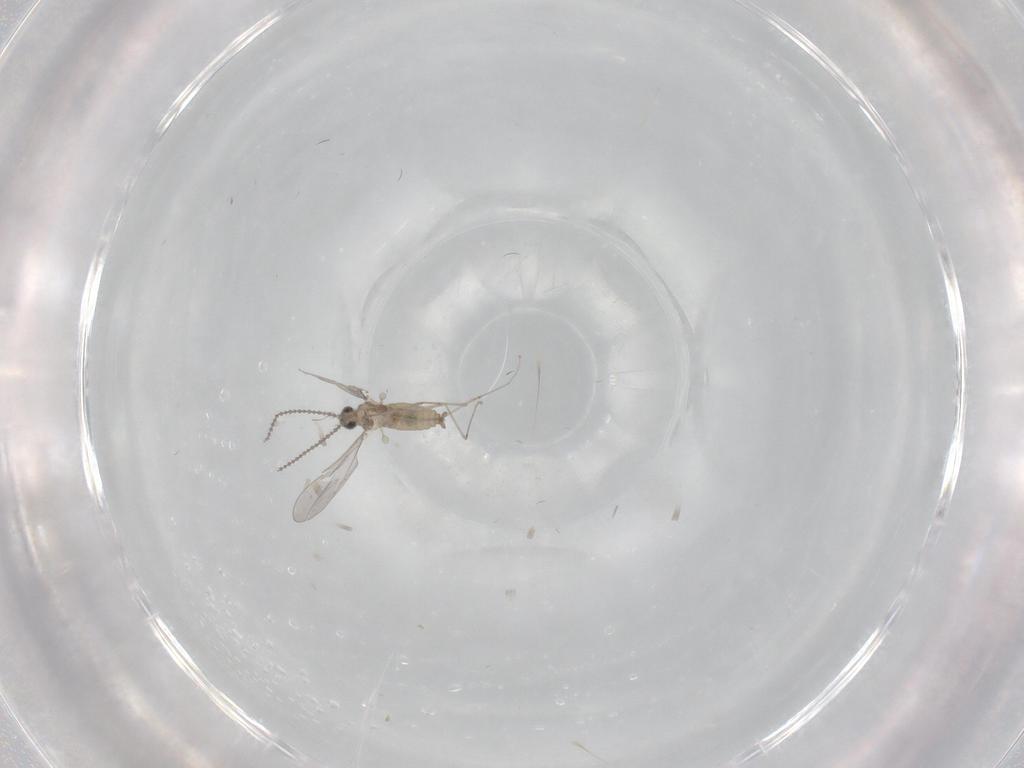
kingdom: Animalia
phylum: Arthropoda
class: Insecta
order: Diptera
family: Cecidomyiidae
